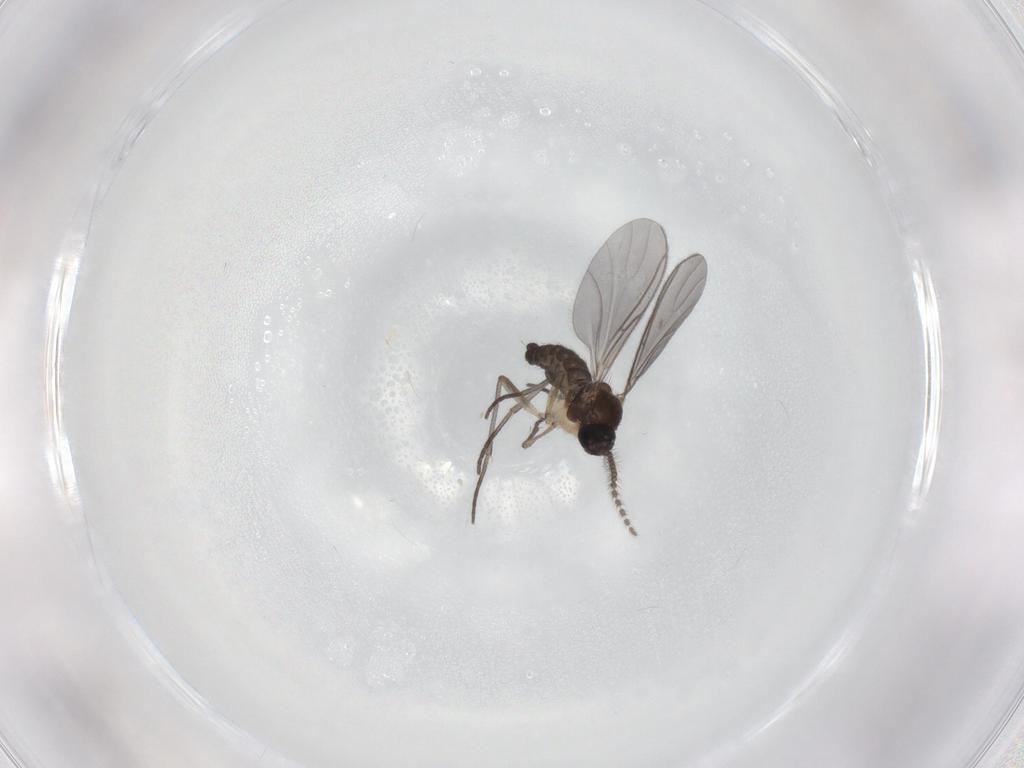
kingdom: Animalia
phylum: Arthropoda
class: Insecta
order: Diptera
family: Sciaridae
